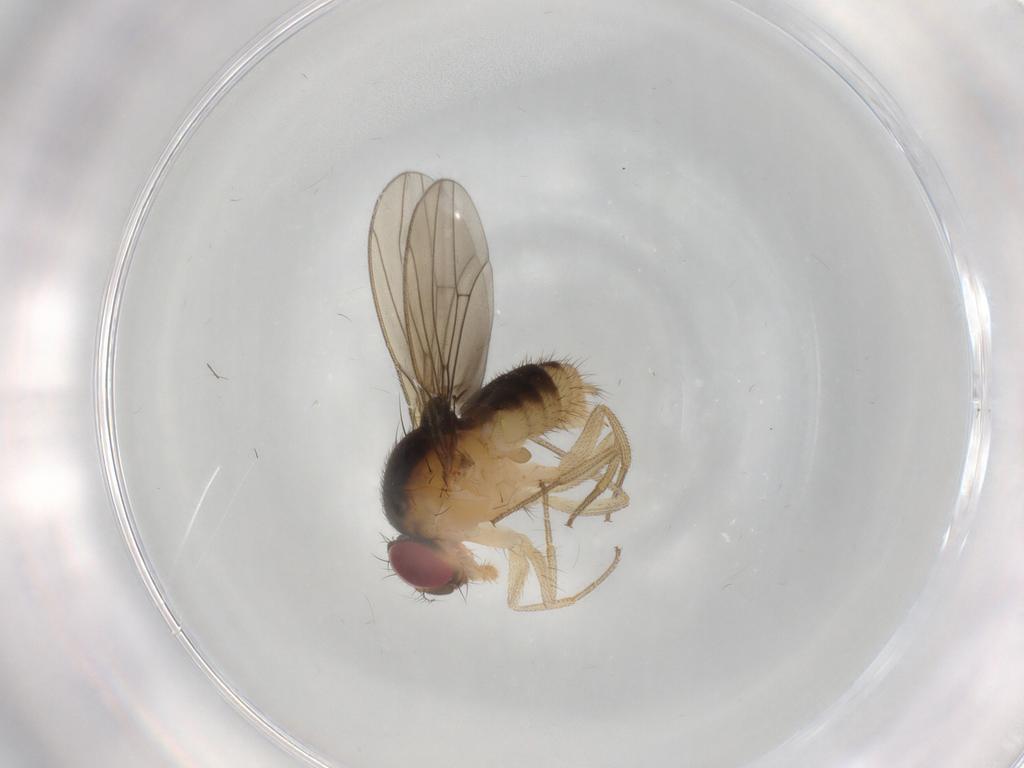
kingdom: Animalia
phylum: Arthropoda
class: Insecta
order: Diptera
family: Drosophilidae
